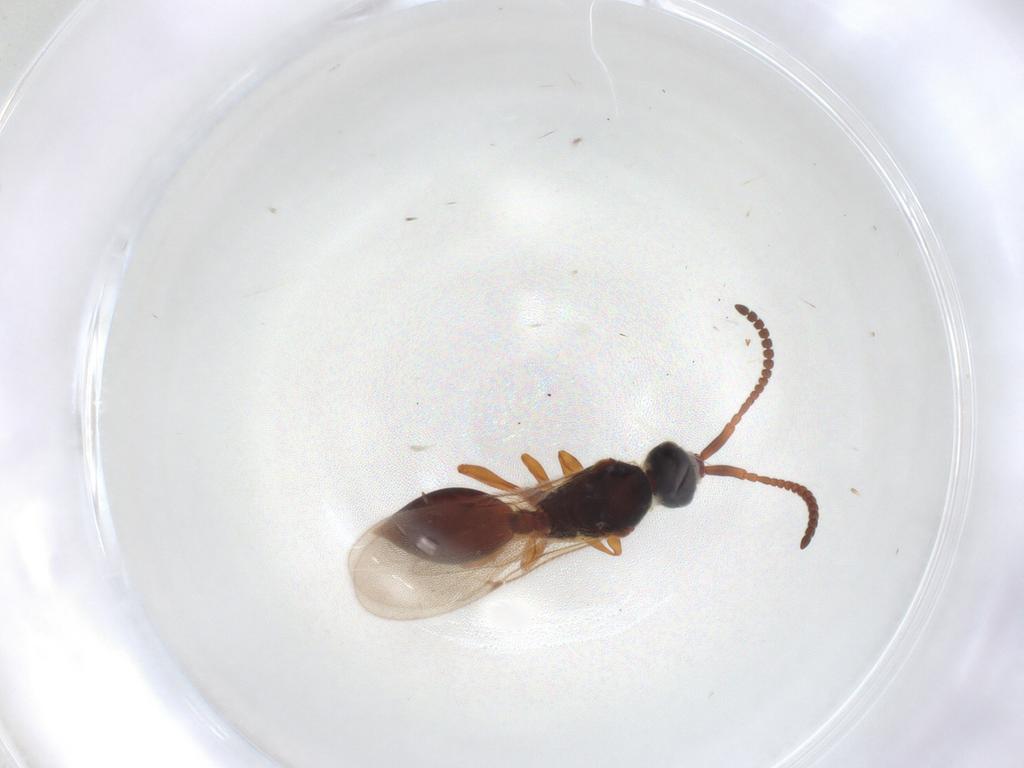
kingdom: Animalia
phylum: Arthropoda
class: Insecta
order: Hymenoptera
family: Diapriidae
